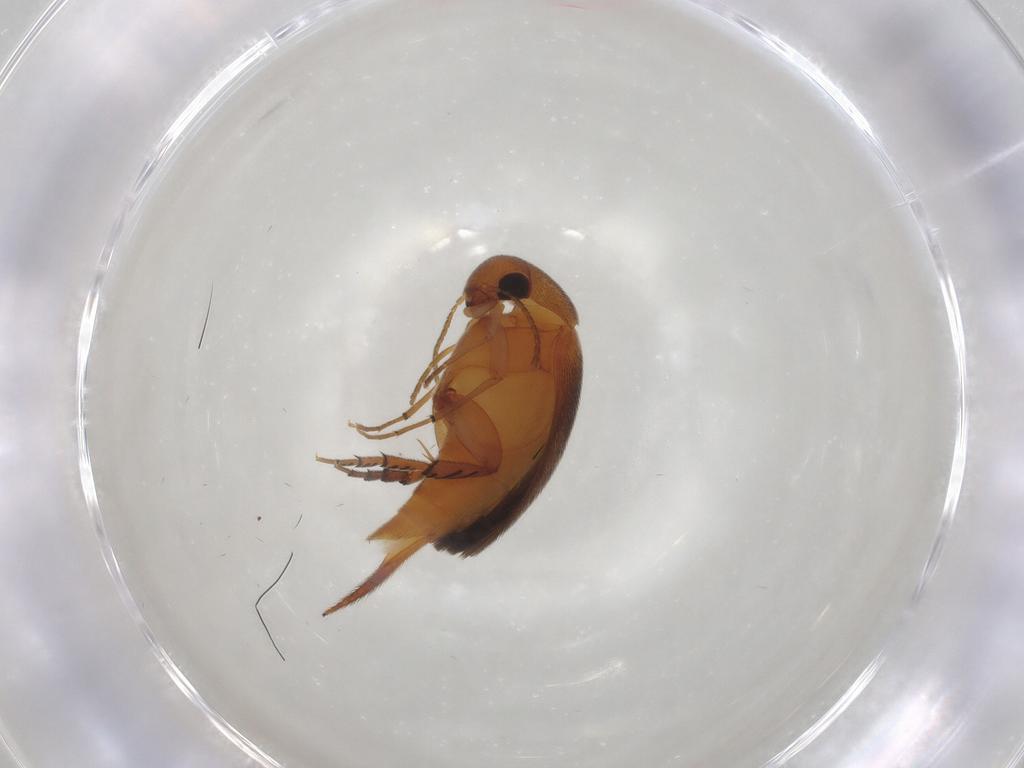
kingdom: Animalia
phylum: Arthropoda
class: Insecta
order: Coleoptera
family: Mordellidae
